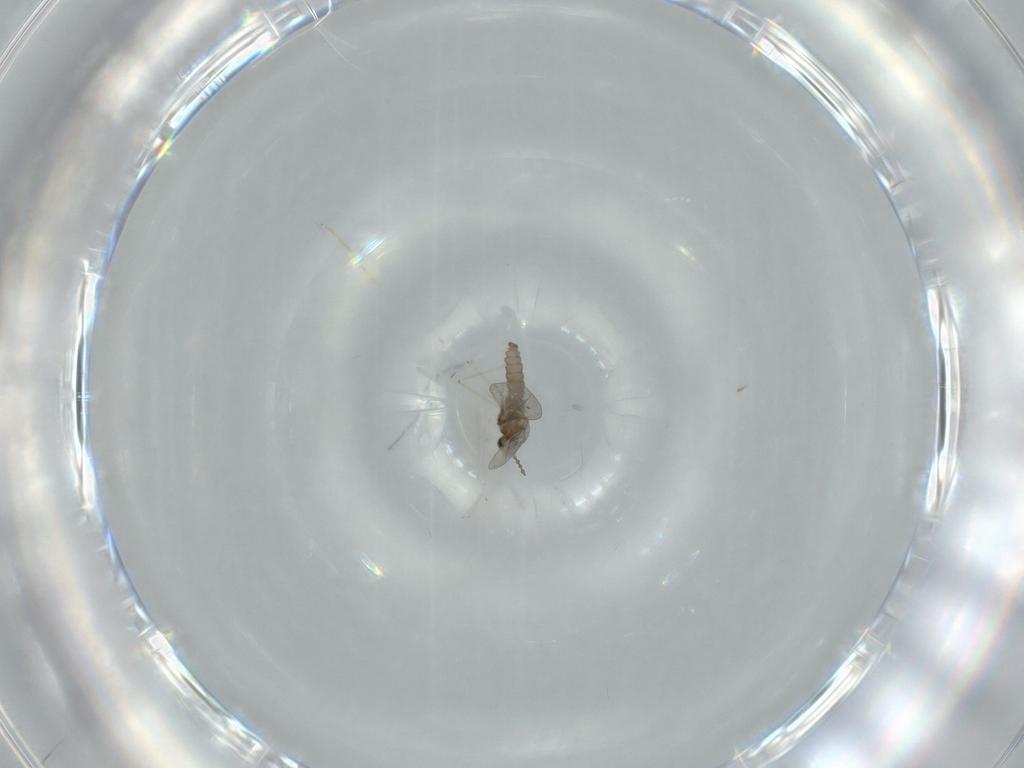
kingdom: Animalia
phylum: Arthropoda
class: Insecta
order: Diptera
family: Cecidomyiidae
